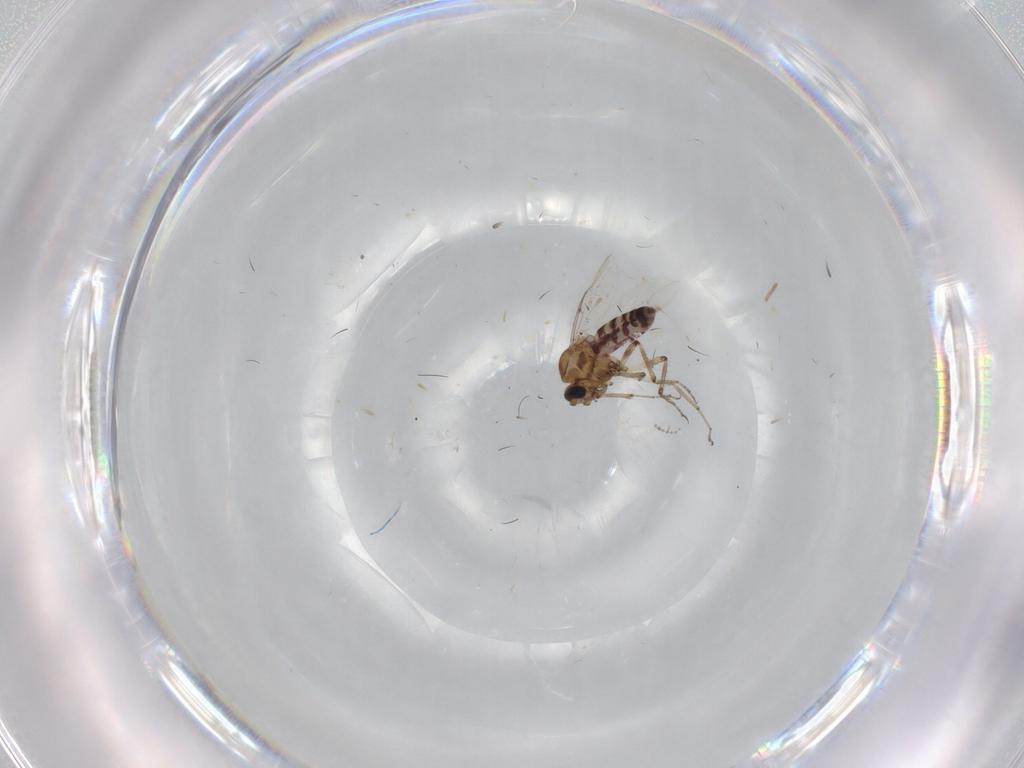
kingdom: Animalia
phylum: Arthropoda
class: Insecta
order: Diptera
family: Ceratopogonidae
